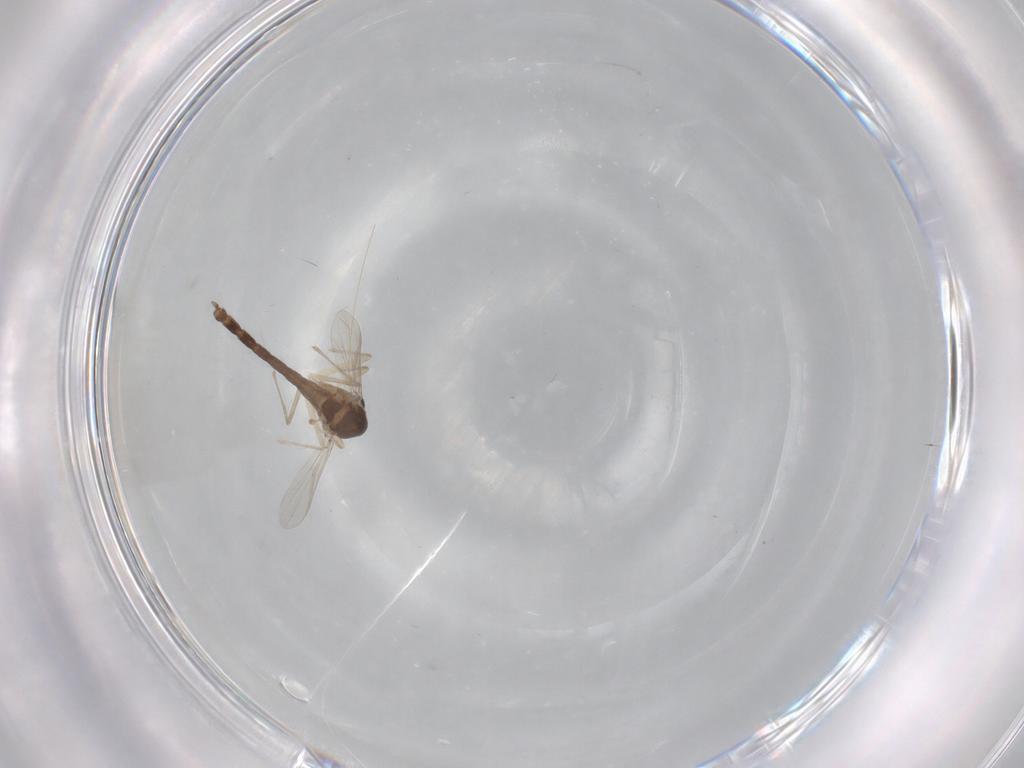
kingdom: Animalia
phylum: Arthropoda
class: Insecta
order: Diptera
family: Chironomidae
